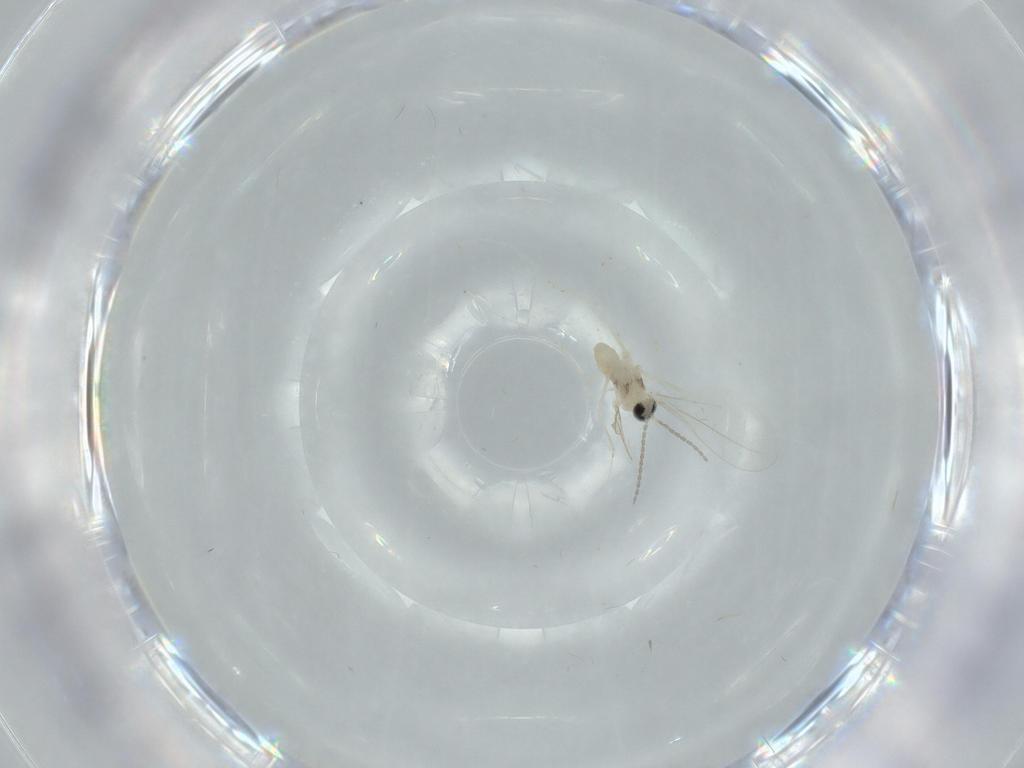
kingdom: Animalia
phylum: Arthropoda
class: Insecta
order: Diptera
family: Cecidomyiidae
